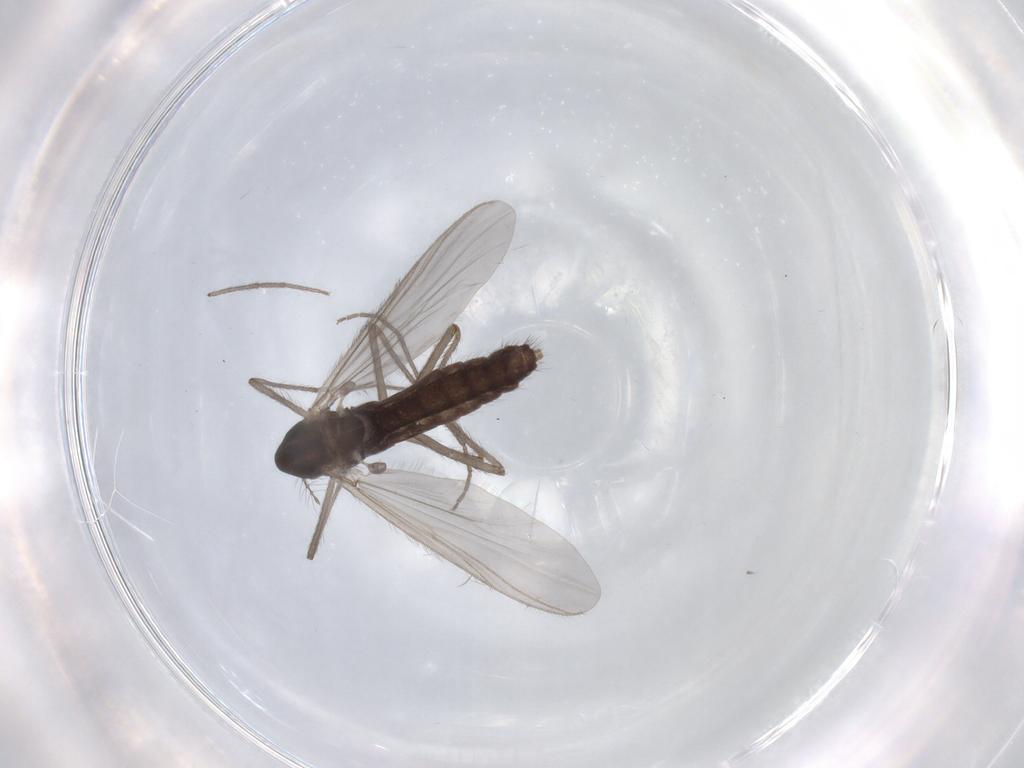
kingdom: Animalia
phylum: Arthropoda
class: Insecta
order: Diptera
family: Chironomidae
